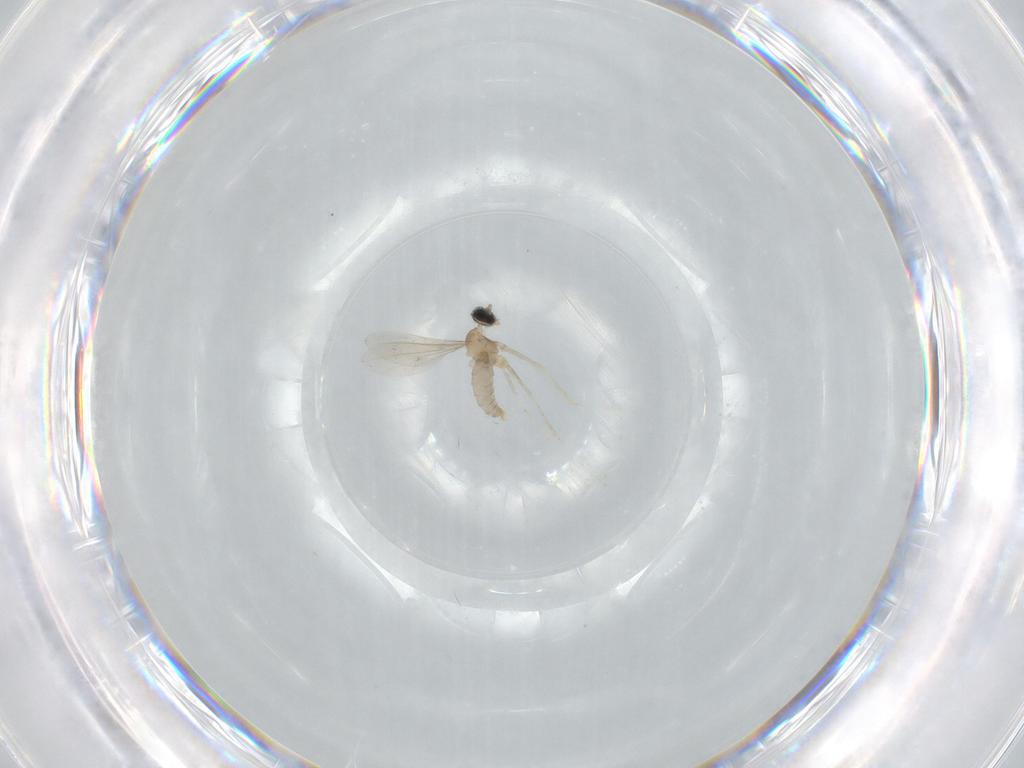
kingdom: Animalia
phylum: Arthropoda
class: Insecta
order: Diptera
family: Cecidomyiidae
